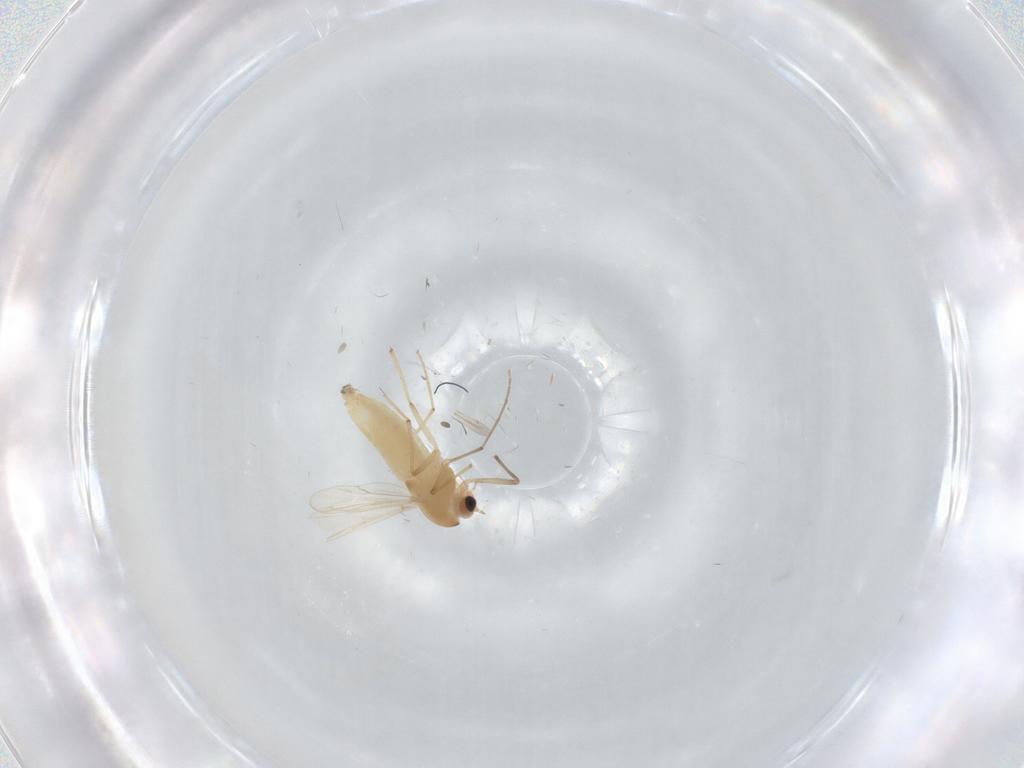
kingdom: Animalia
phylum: Arthropoda
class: Insecta
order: Diptera
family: Chironomidae
